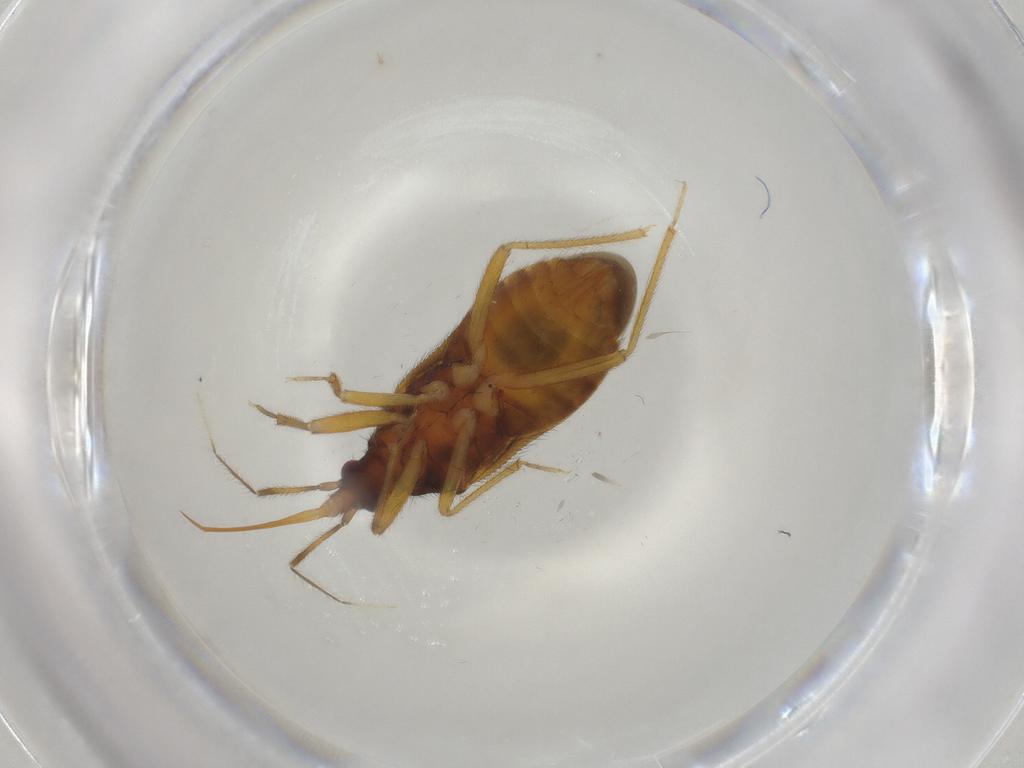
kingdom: Animalia
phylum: Arthropoda
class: Insecta
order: Hemiptera
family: Anthocoridae
